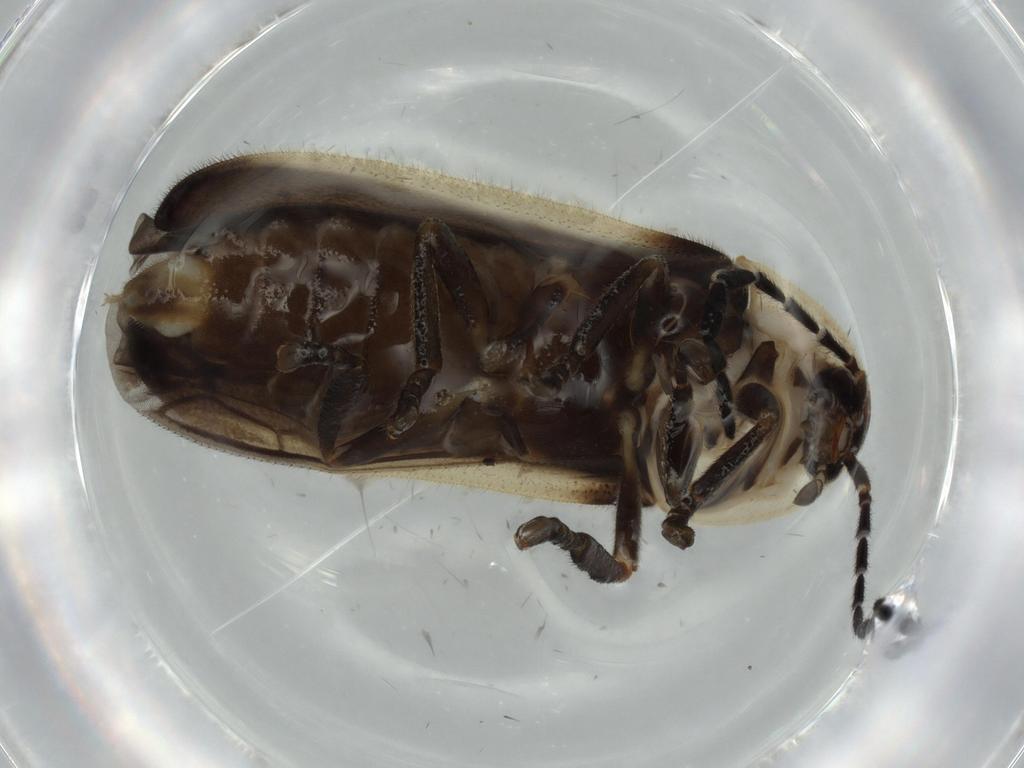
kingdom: Animalia
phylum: Arthropoda
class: Insecta
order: Coleoptera
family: Lampyridae
